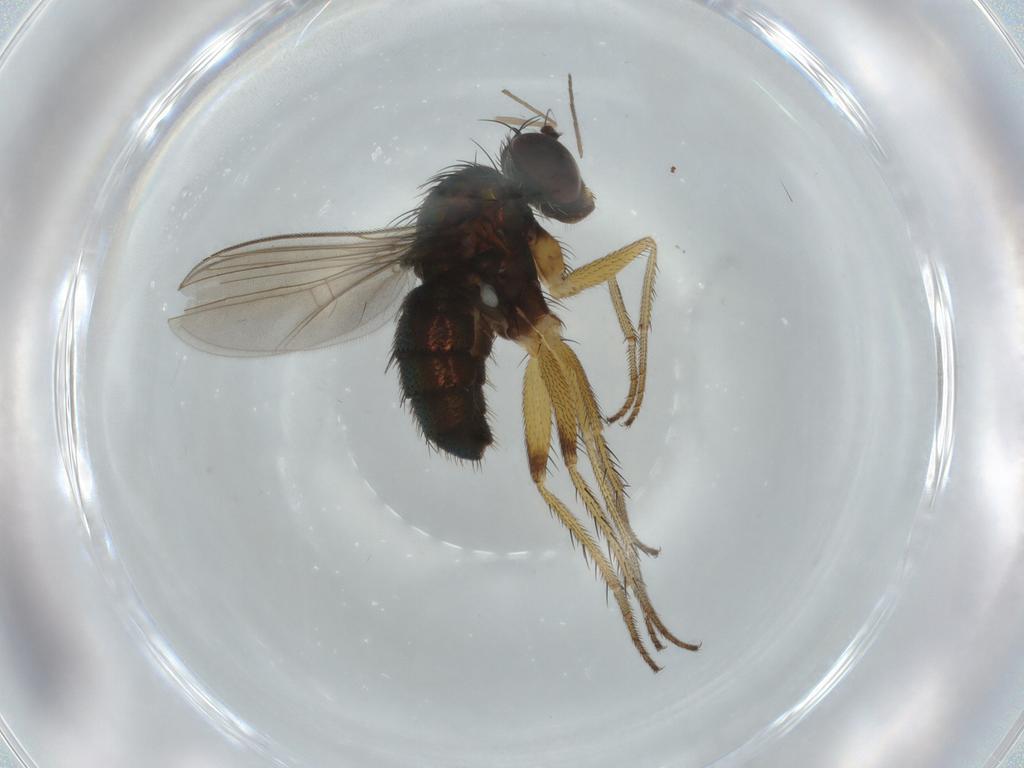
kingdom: Animalia
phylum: Arthropoda
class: Insecta
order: Diptera
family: Dolichopodidae
